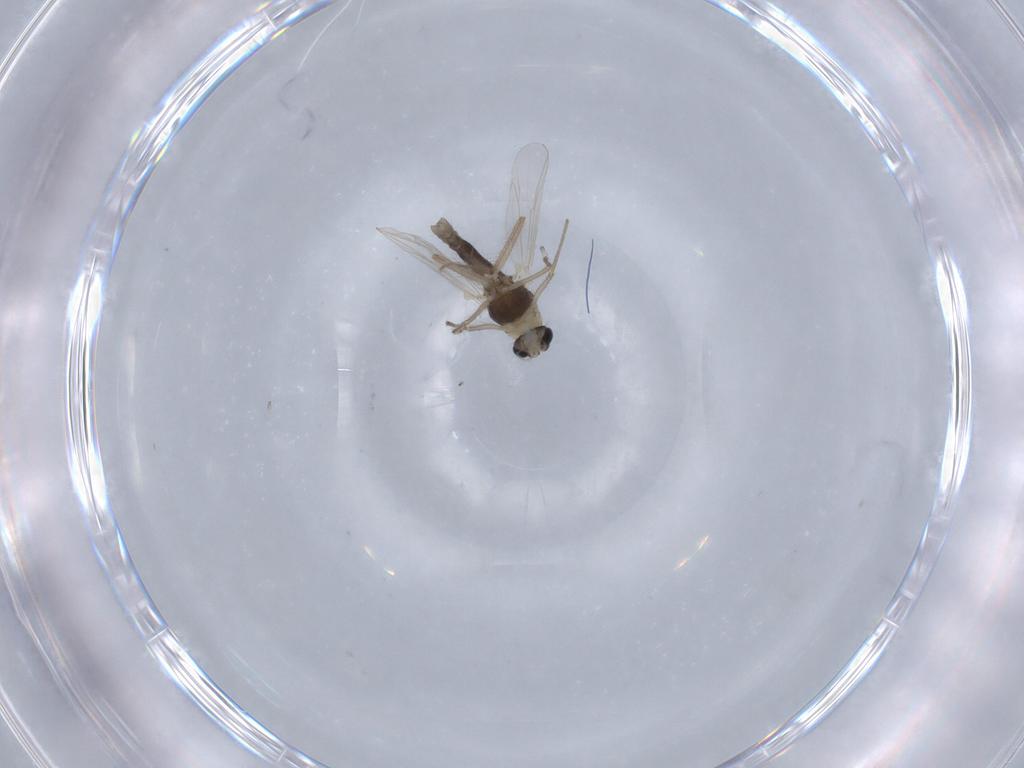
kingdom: Animalia
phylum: Arthropoda
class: Insecta
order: Diptera
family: Chironomidae
